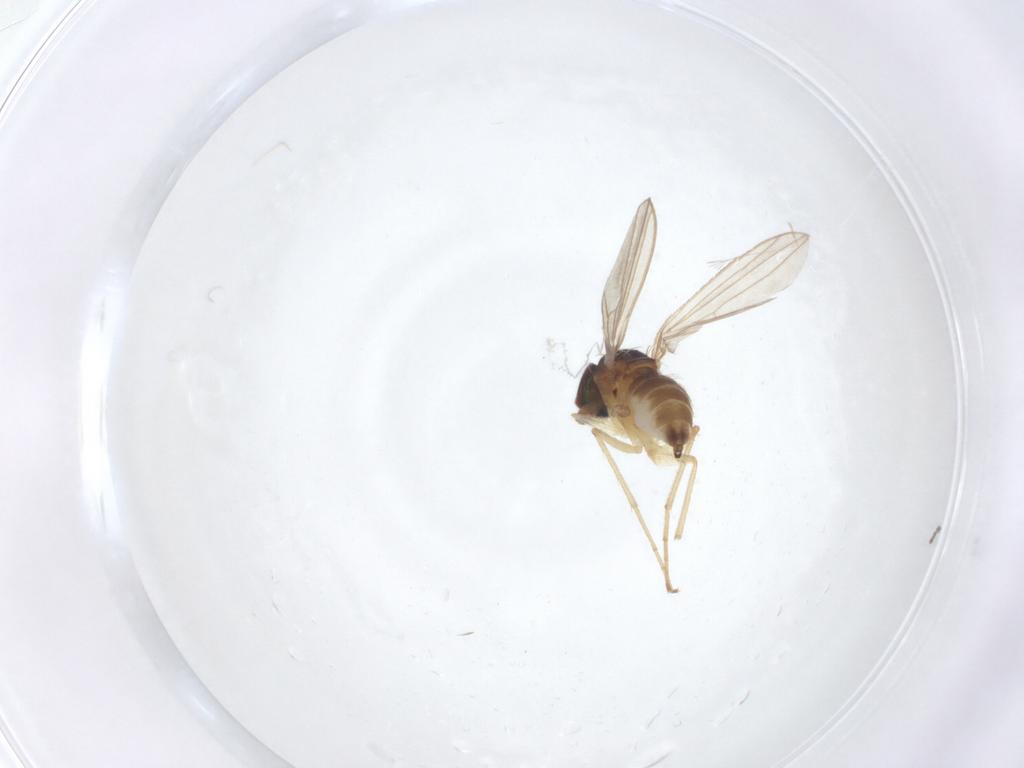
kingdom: Animalia
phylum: Arthropoda
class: Insecta
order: Diptera
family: Dolichopodidae
